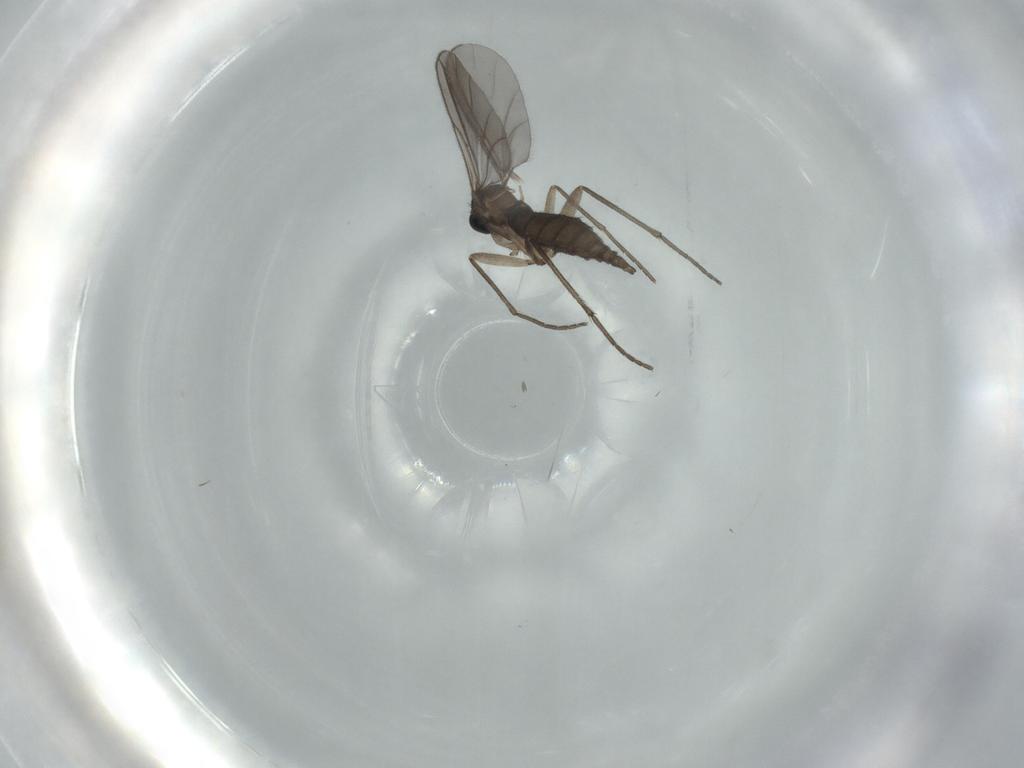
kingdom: Animalia
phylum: Arthropoda
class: Insecta
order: Diptera
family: Sciaridae
